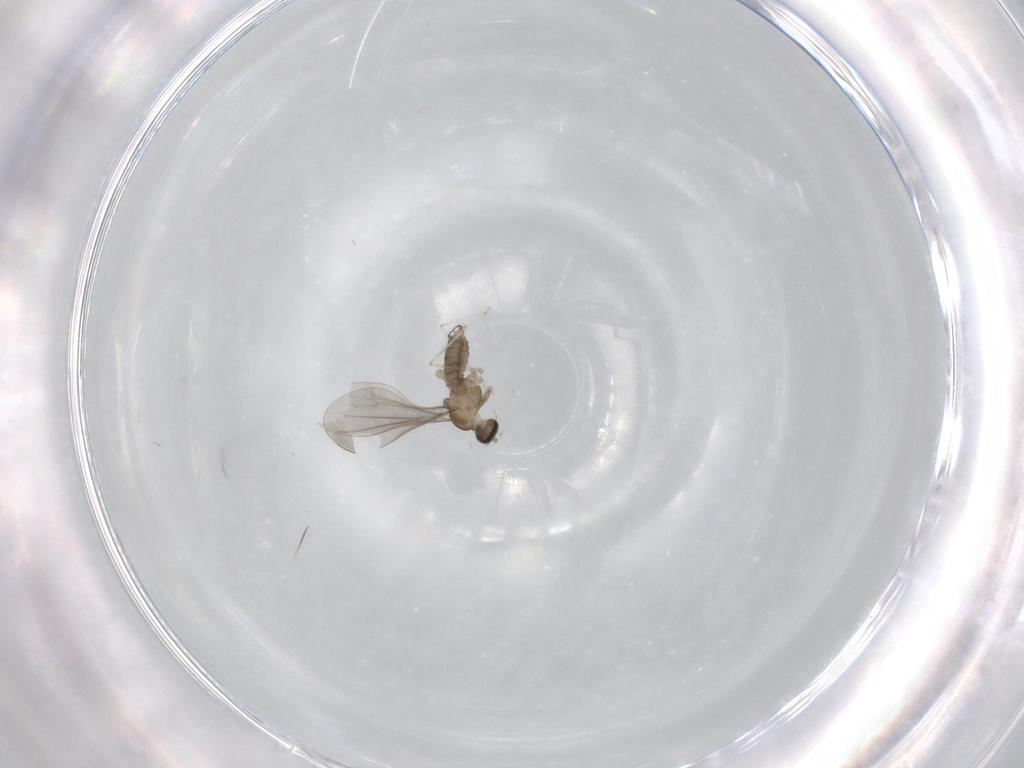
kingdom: Animalia
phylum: Arthropoda
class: Insecta
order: Diptera
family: Cecidomyiidae
